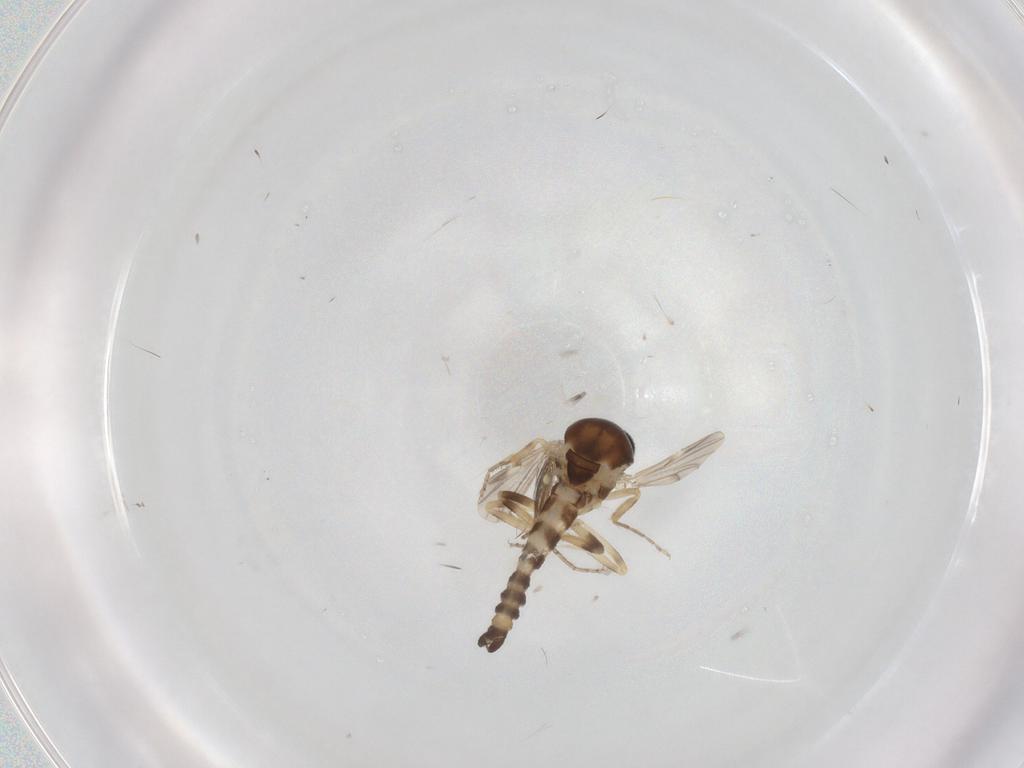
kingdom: Animalia
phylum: Arthropoda
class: Insecta
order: Diptera
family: Ceratopogonidae
